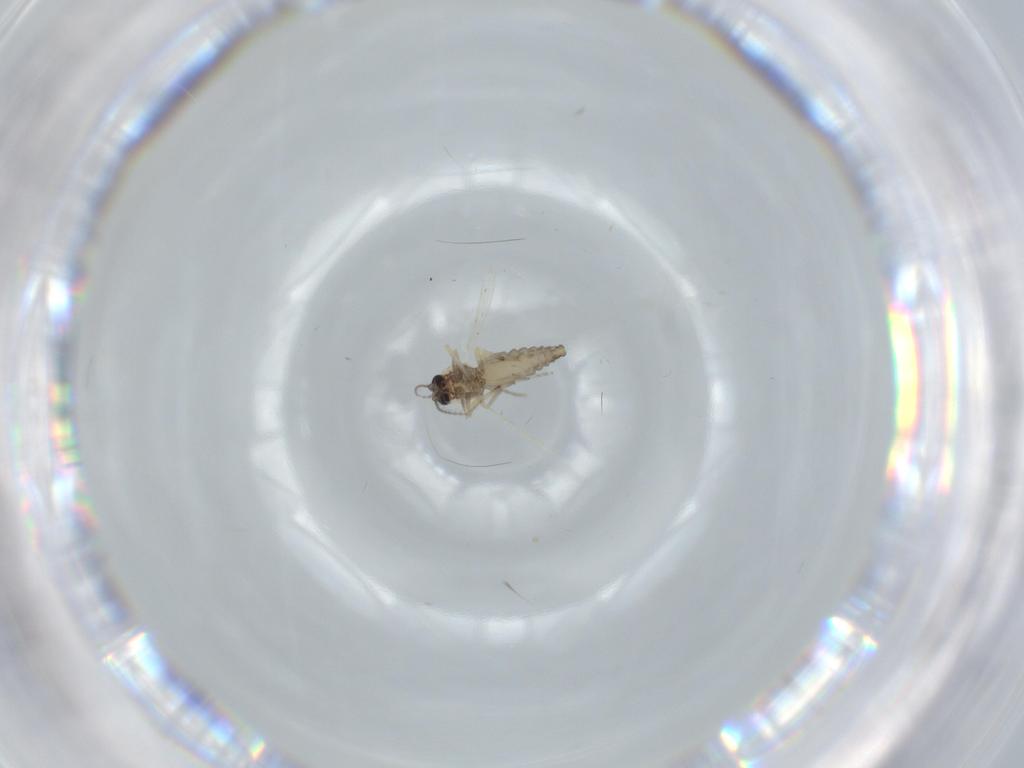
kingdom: Animalia
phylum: Arthropoda
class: Insecta
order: Diptera
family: Ceratopogonidae
